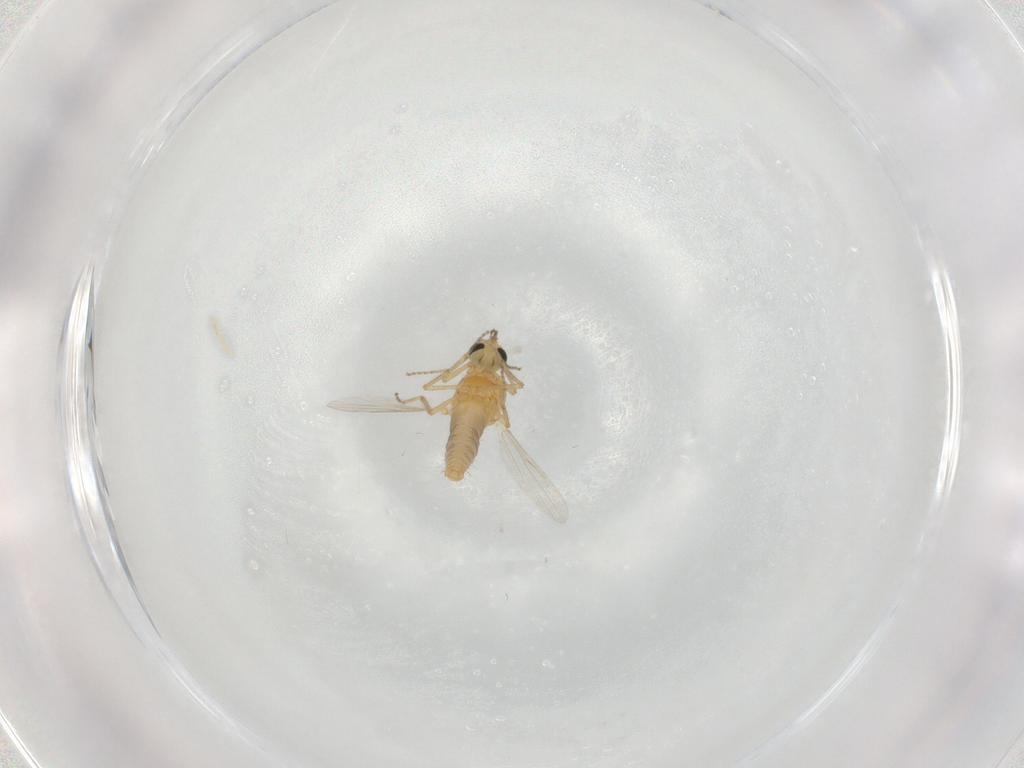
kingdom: Animalia
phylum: Arthropoda
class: Insecta
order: Diptera
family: Ceratopogonidae
